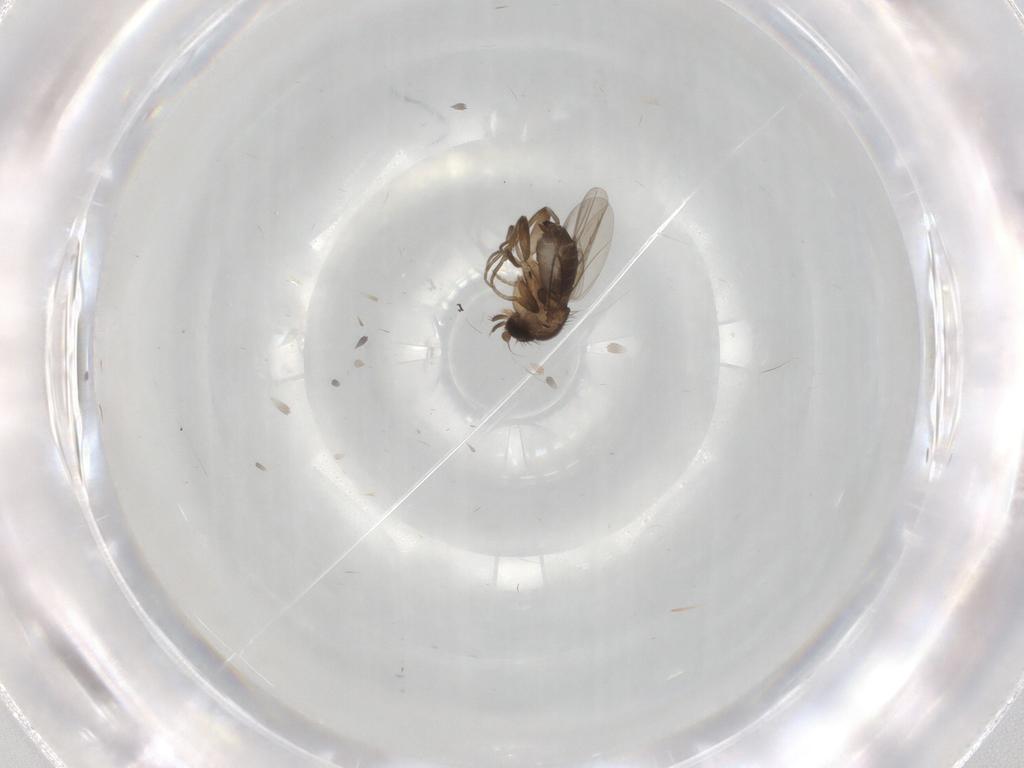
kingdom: Animalia
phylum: Arthropoda
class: Insecta
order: Diptera
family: Phoridae
